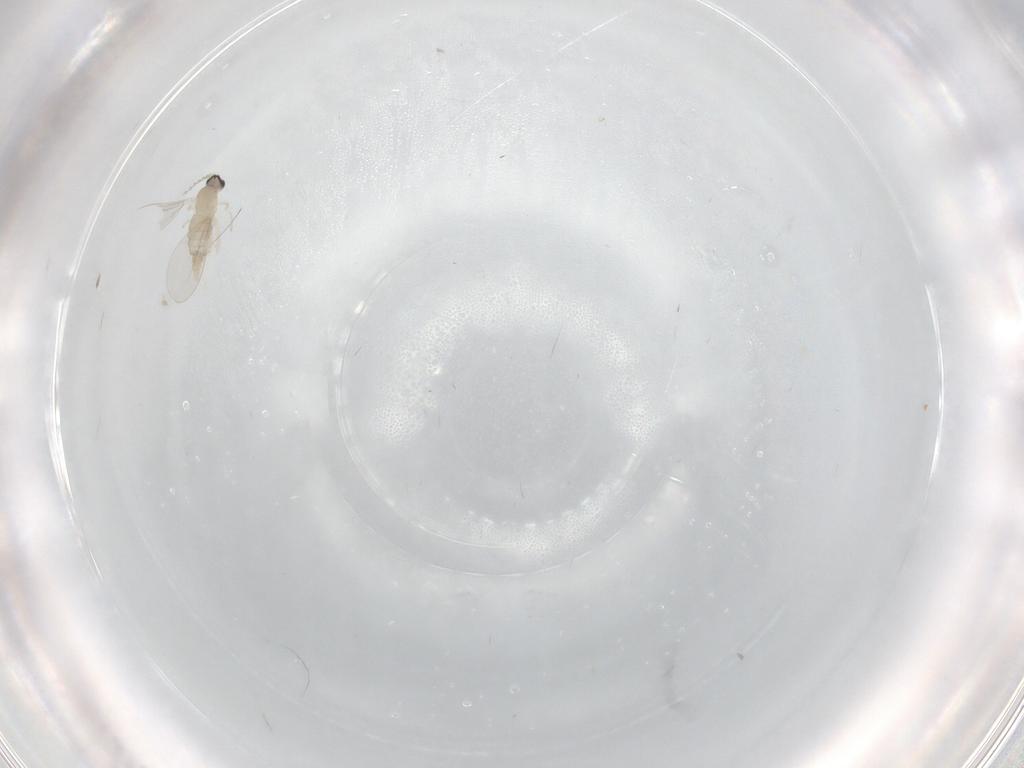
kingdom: Animalia
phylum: Arthropoda
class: Insecta
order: Diptera
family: Cecidomyiidae
